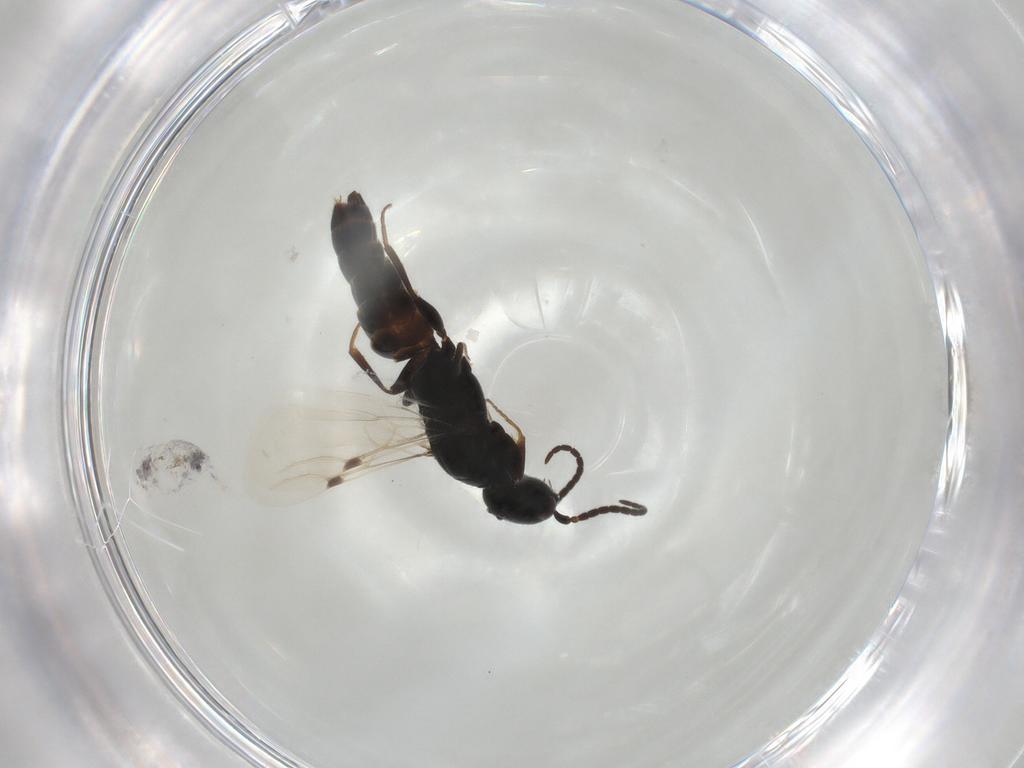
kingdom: Animalia
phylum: Arthropoda
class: Insecta
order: Hymenoptera
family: Bethylidae
